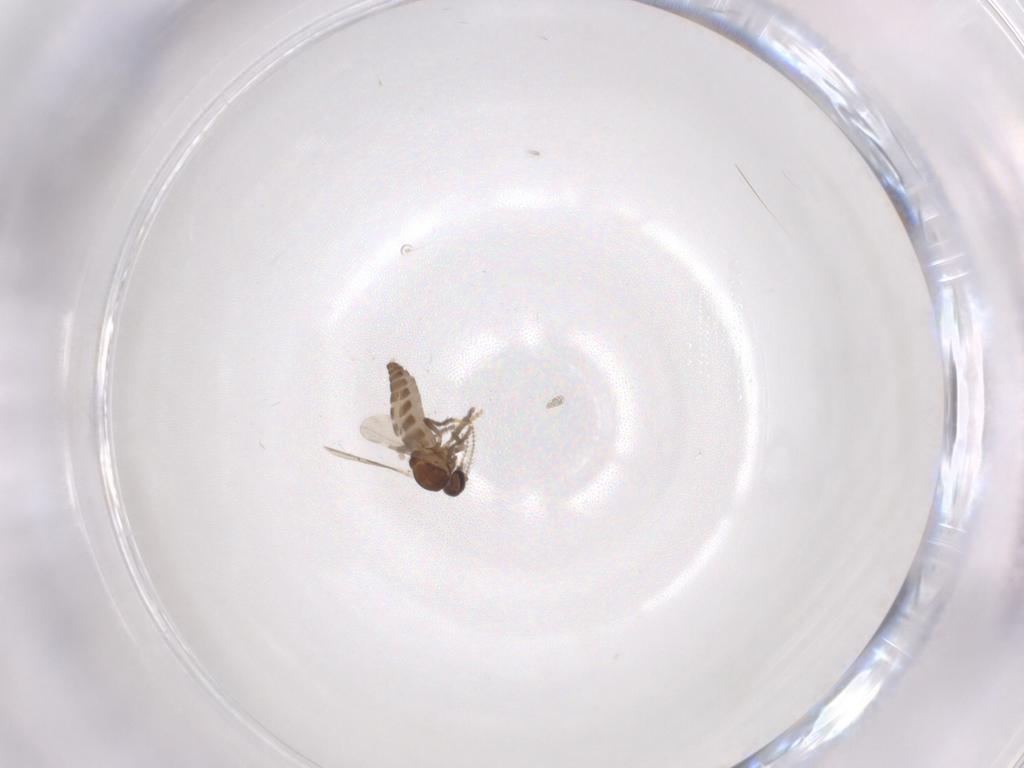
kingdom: Animalia
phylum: Arthropoda
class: Insecta
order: Diptera
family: Ceratopogonidae
